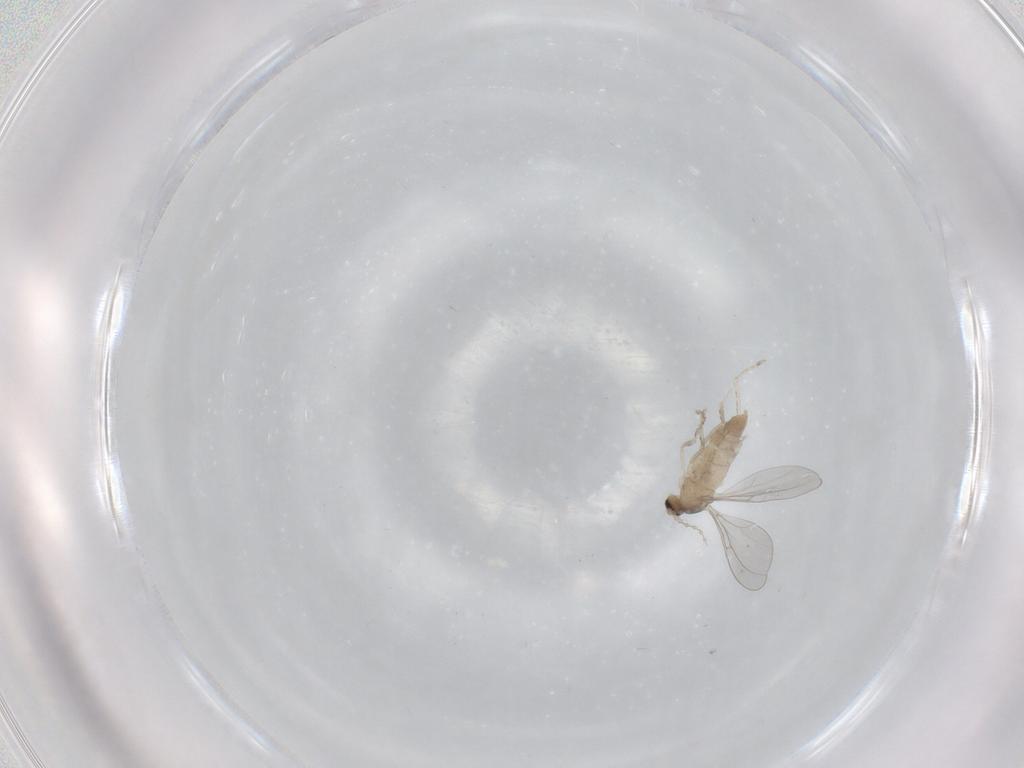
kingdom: Animalia
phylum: Arthropoda
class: Insecta
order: Diptera
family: Cecidomyiidae
